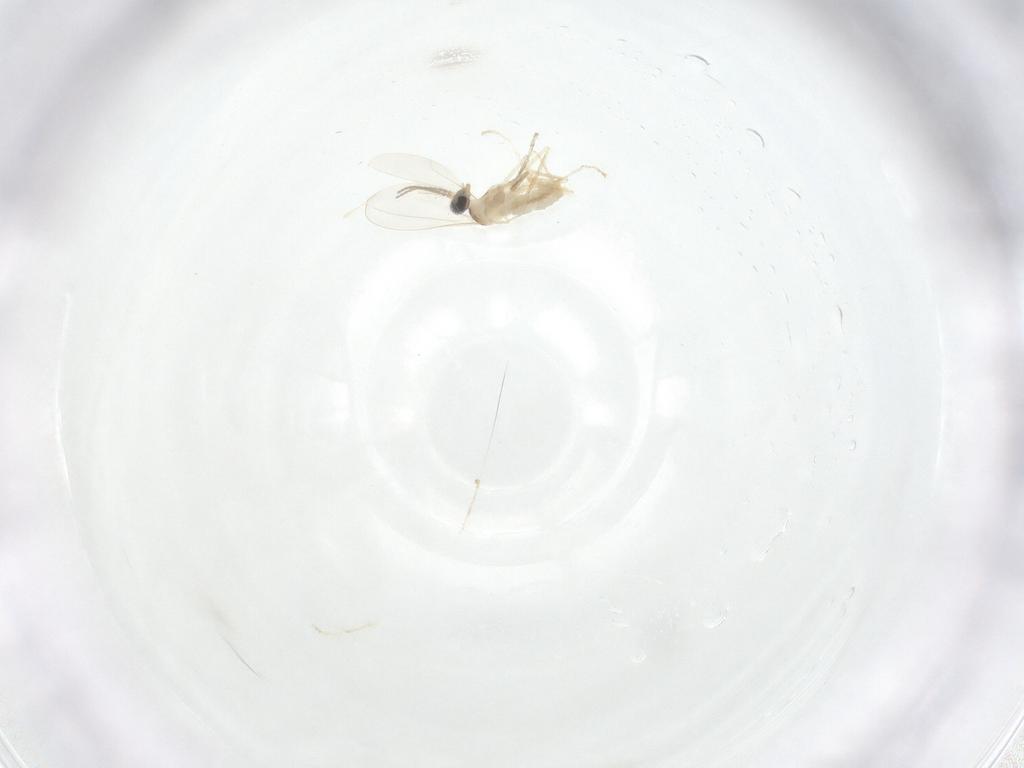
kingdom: Animalia
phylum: Arthropoda
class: Insecta
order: Diptera
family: Cecidomyiidae
